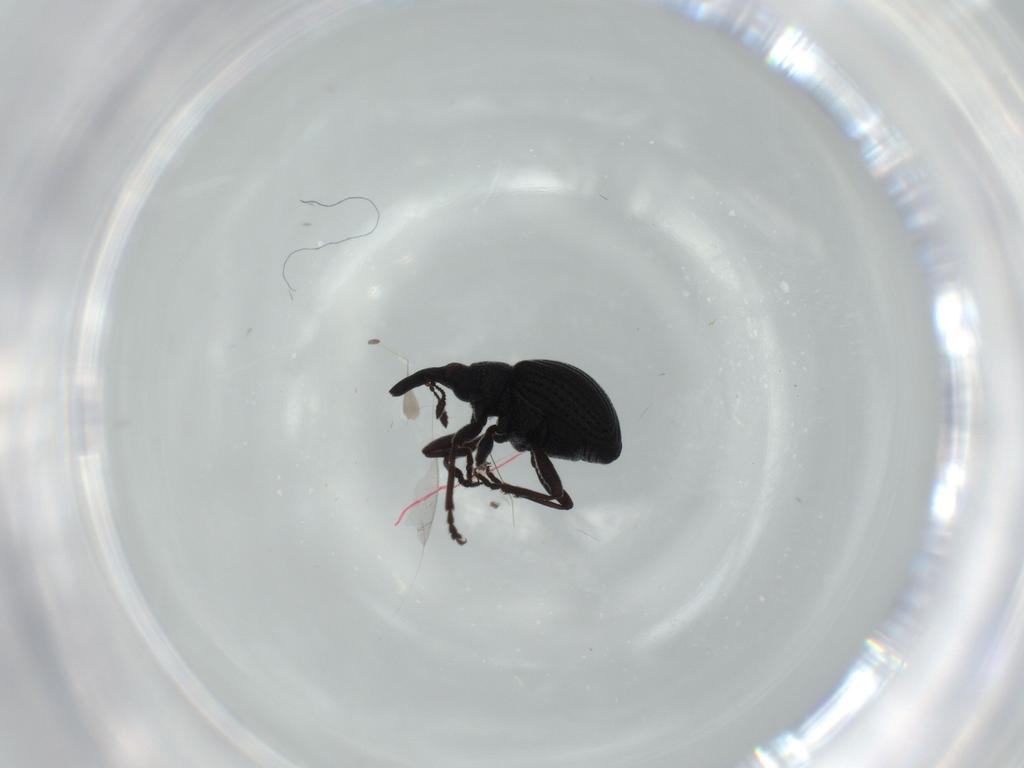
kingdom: Animalia
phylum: Arthropoda
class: Insecta
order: Coleoptera
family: Brentidae
